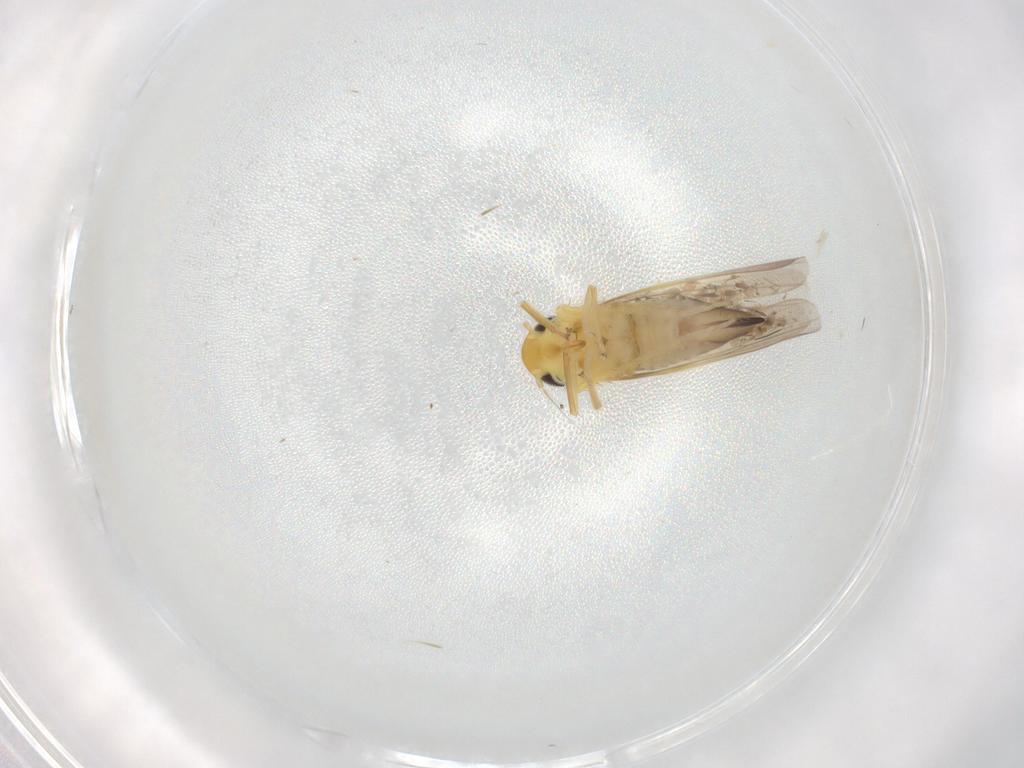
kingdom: Animalia
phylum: Arthropoda
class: Insecta
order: Hemiptera
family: Cicadellidae
